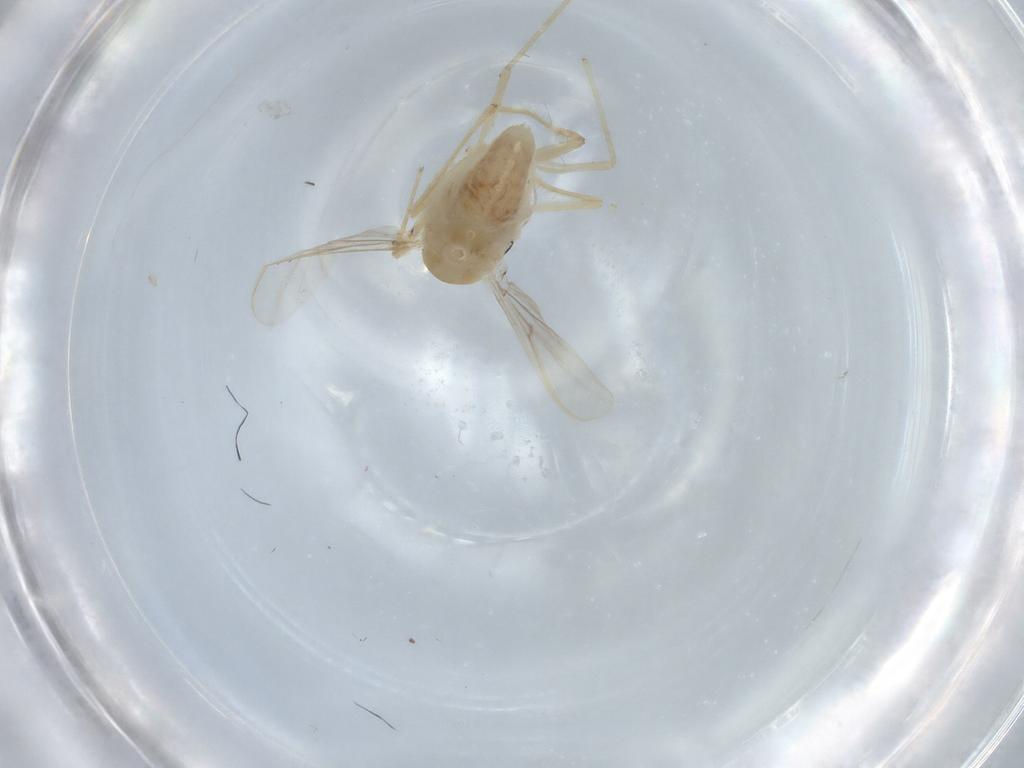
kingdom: Animalia
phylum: Arthropoda
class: Insecta
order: Diptera
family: Chironomidae
